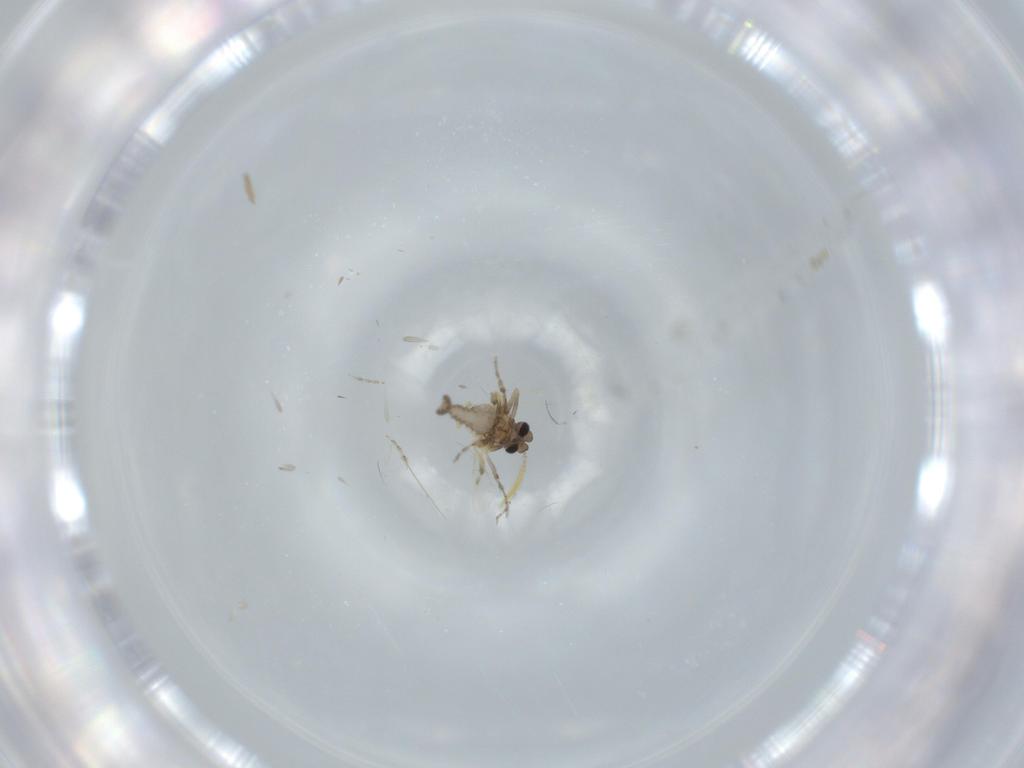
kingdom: Animalia
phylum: Arthropoda
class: Insecta
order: Diptera
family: Ceratopogonidae
